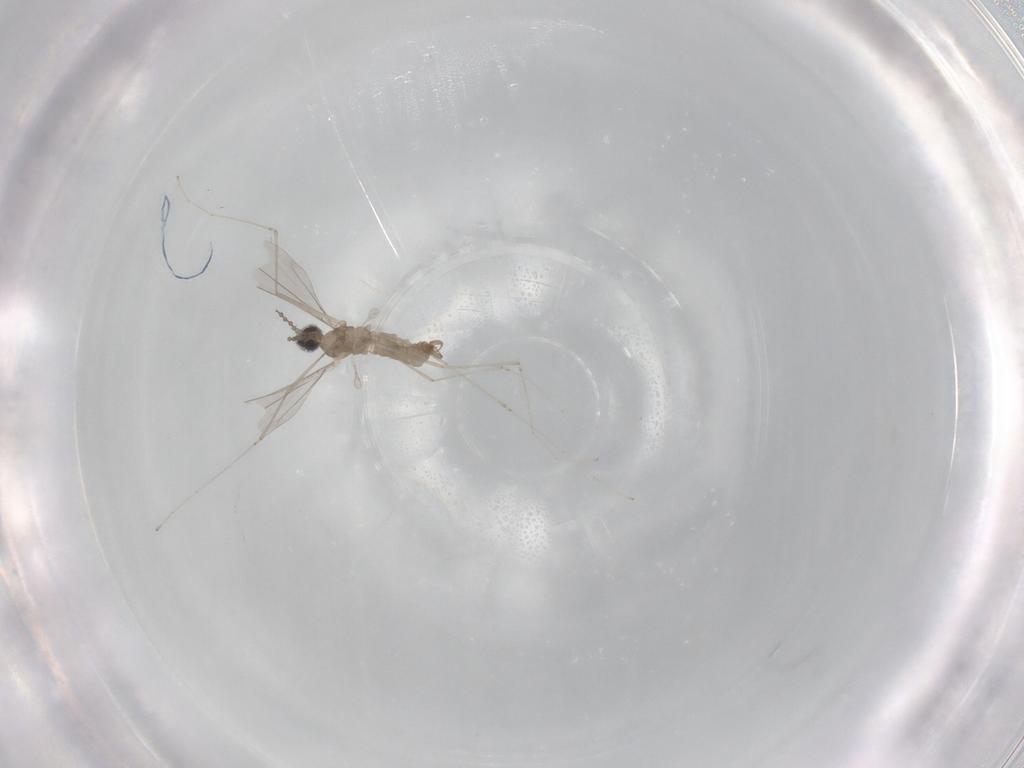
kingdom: Animalia
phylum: Arthropoda
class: Insecta
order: Diptera
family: Cecidomyiidae
